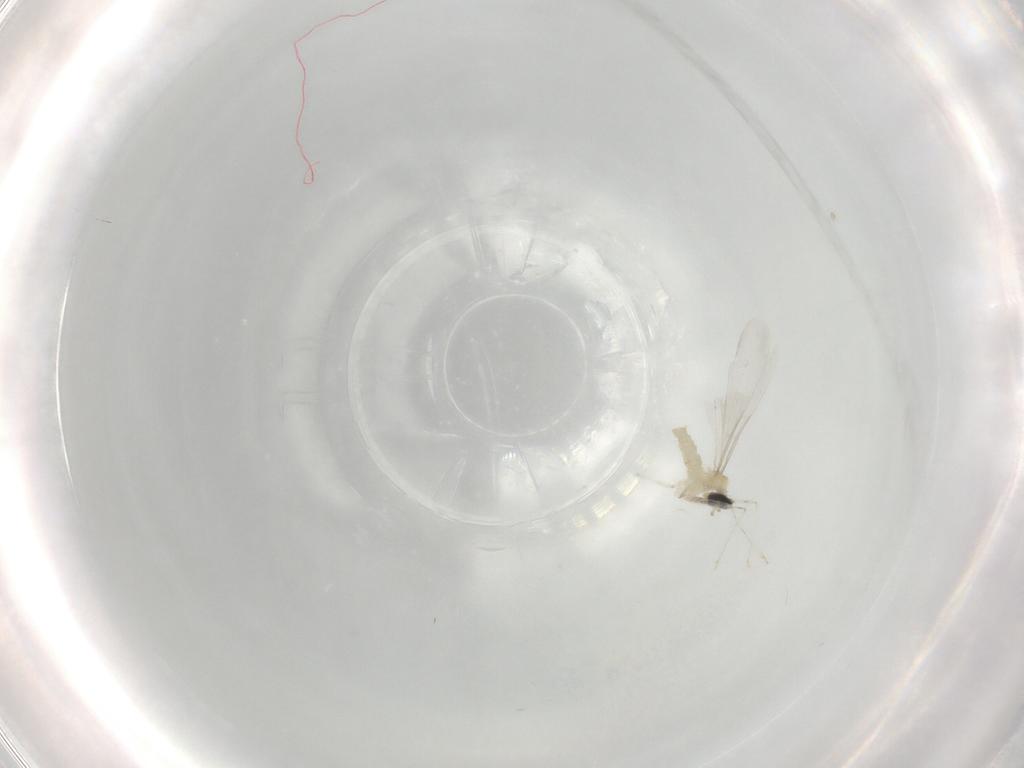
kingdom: Animalia
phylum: Arthropoda
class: Insecta
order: Diptera
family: Cecidomyiidae
